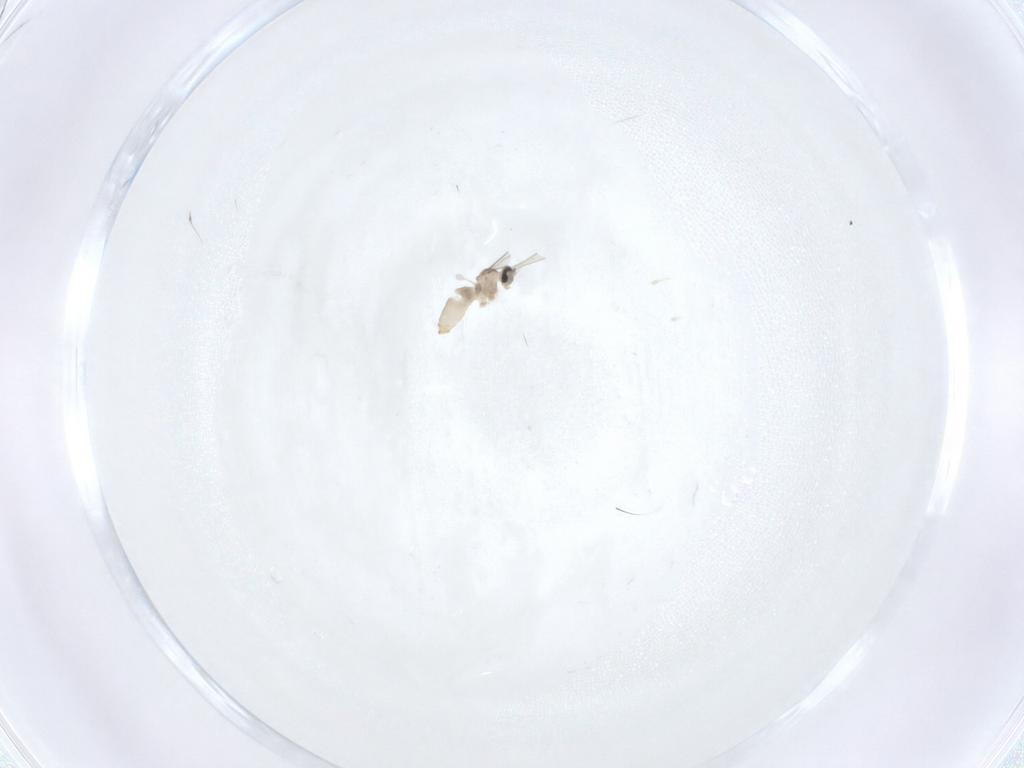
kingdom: Animalia
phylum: Arthropoda
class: Insecta
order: Diptera
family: Cecidomyiidae
